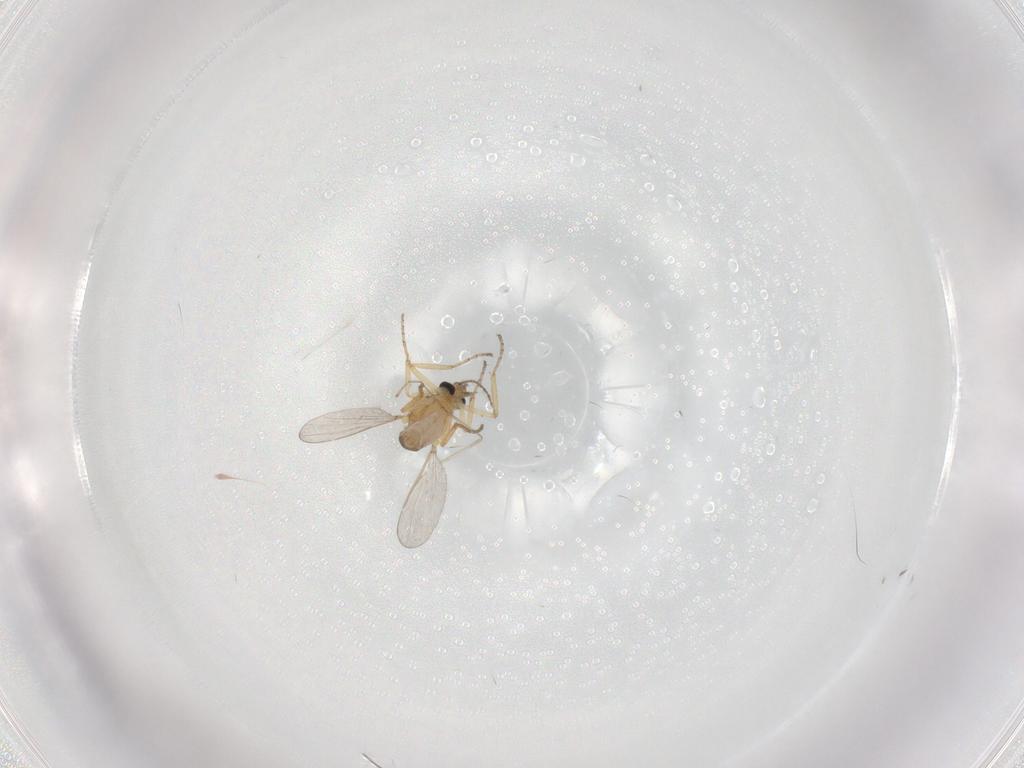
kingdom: Animalia
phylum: Arthropoda
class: Insecta
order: Diptera
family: Ceratopogonidae
